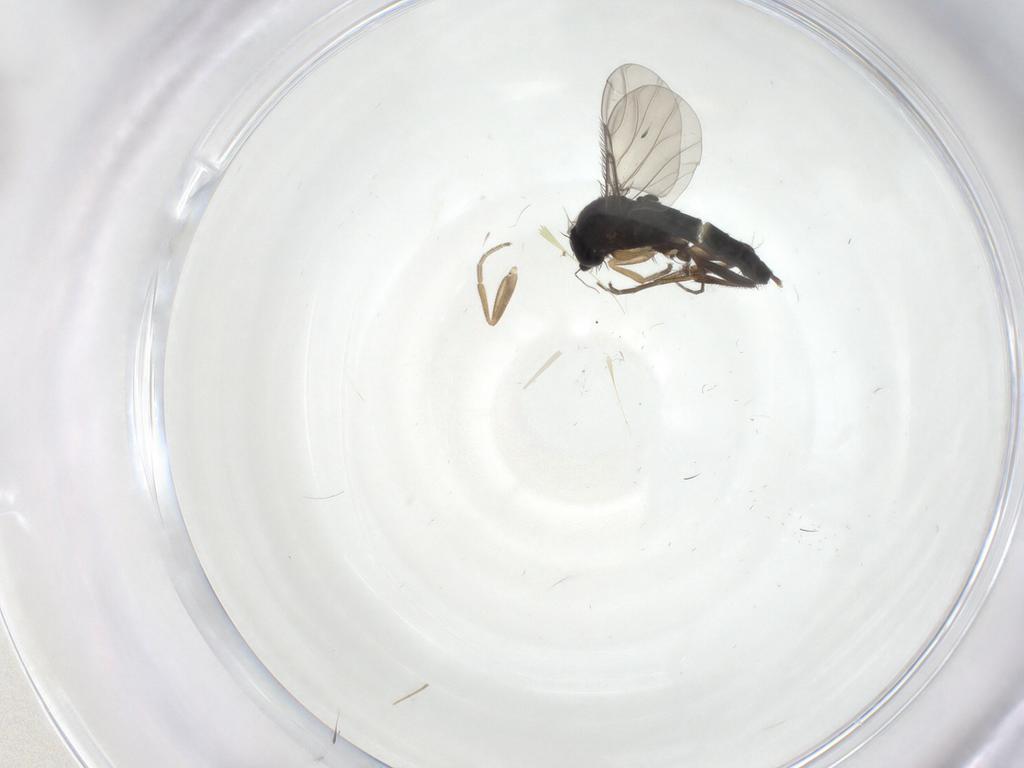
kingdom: Animalia
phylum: Arthropoda
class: Insecta
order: Diptera
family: Phoridae
